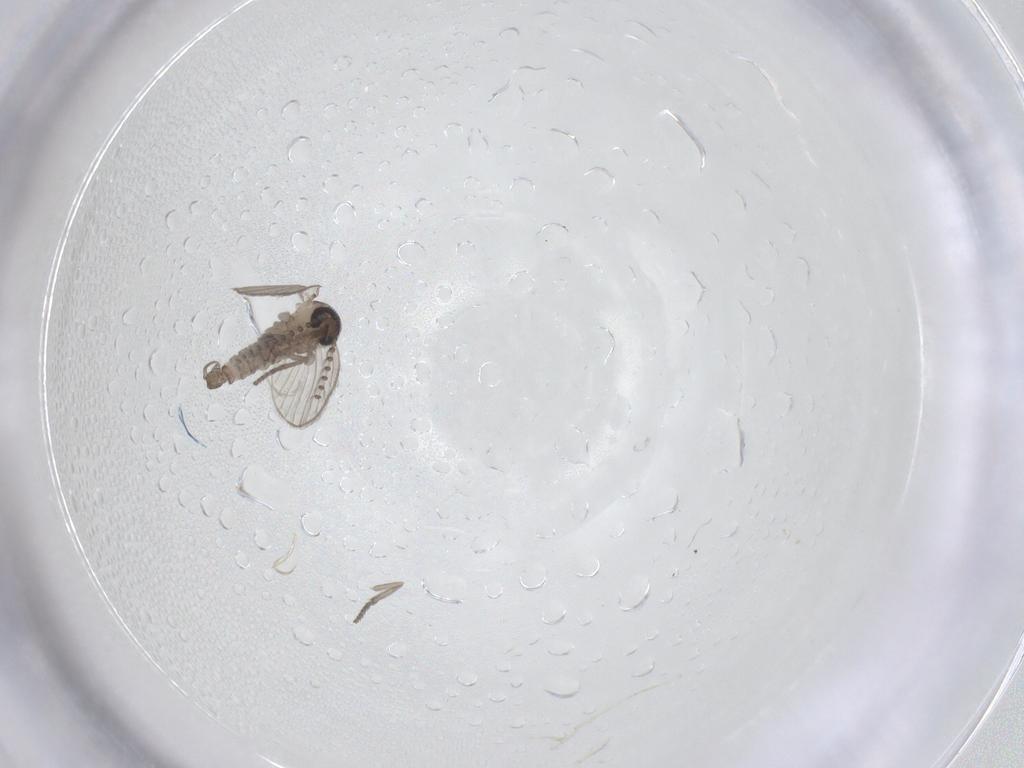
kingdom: Animalia
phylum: Arthropoda
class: Insecta
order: Diptera
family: Psychodidae
